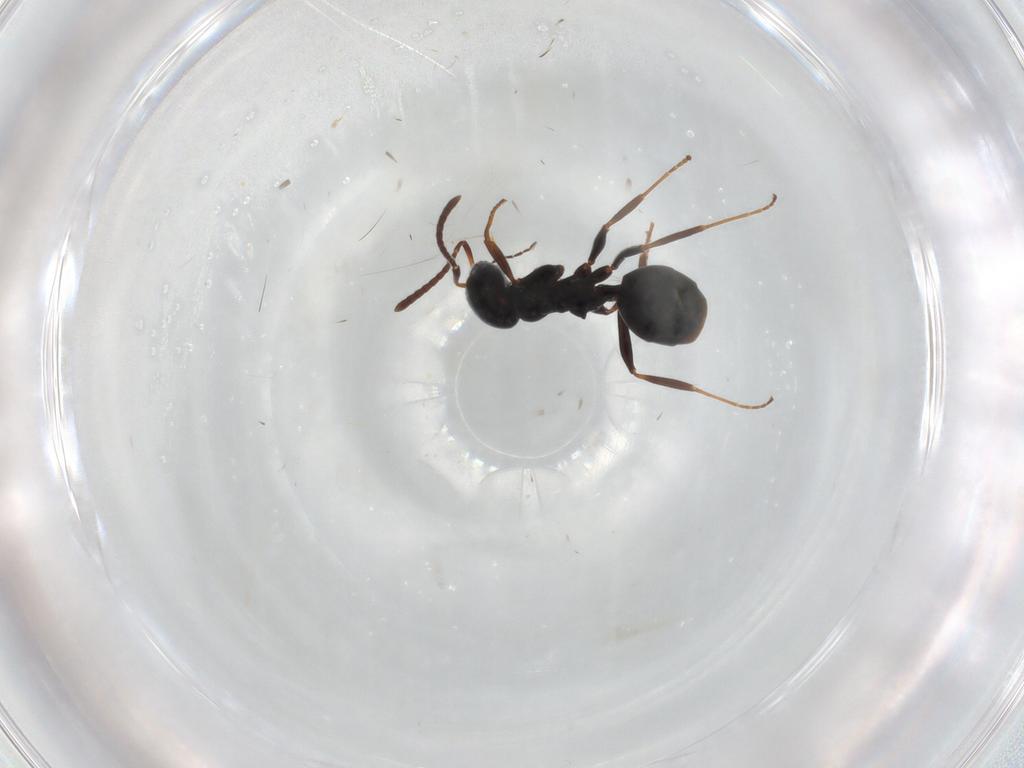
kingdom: Animalia
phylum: Arthropoda
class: Insecta
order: Hymenoptera
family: Formicidae
